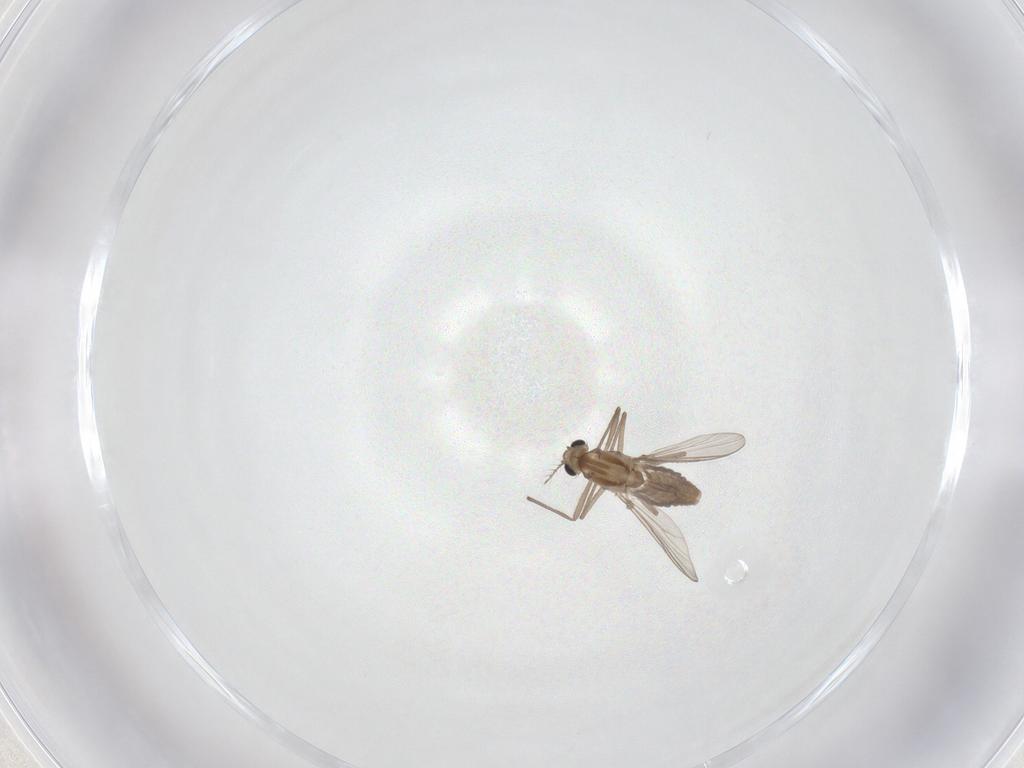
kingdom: Animalia
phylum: Arthropoda
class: Insecta
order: Diptera
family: Chironomidae
